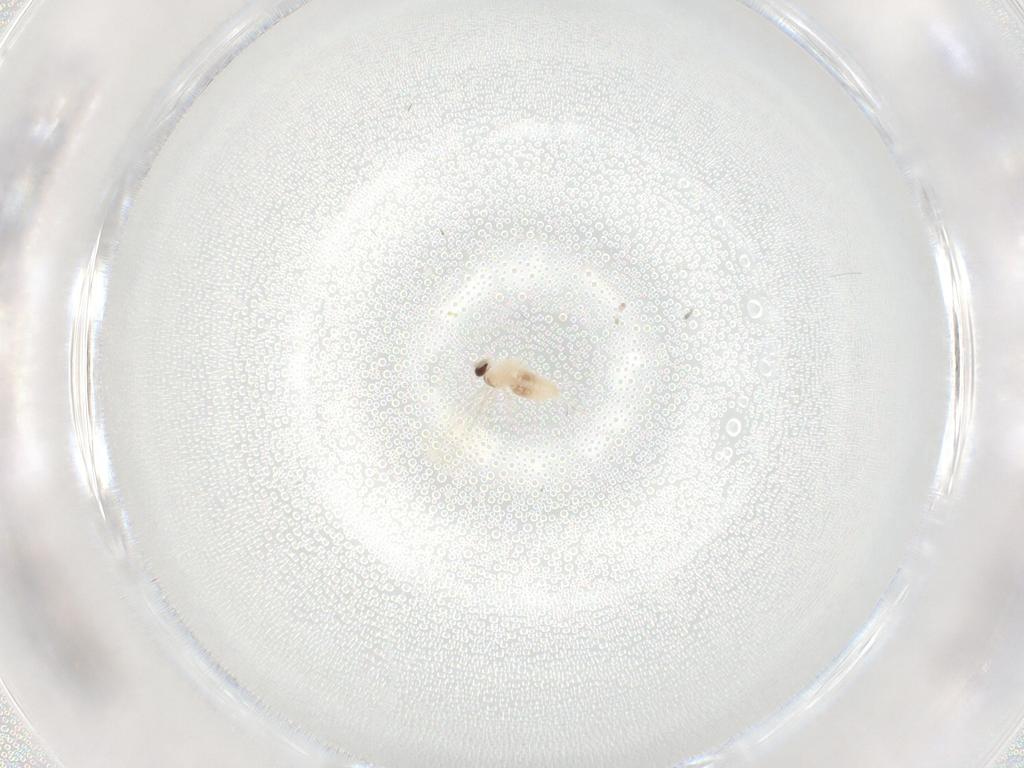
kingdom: Animalia
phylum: Arthropoda
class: Insecta
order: Diptera
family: Cecidomyiidae
